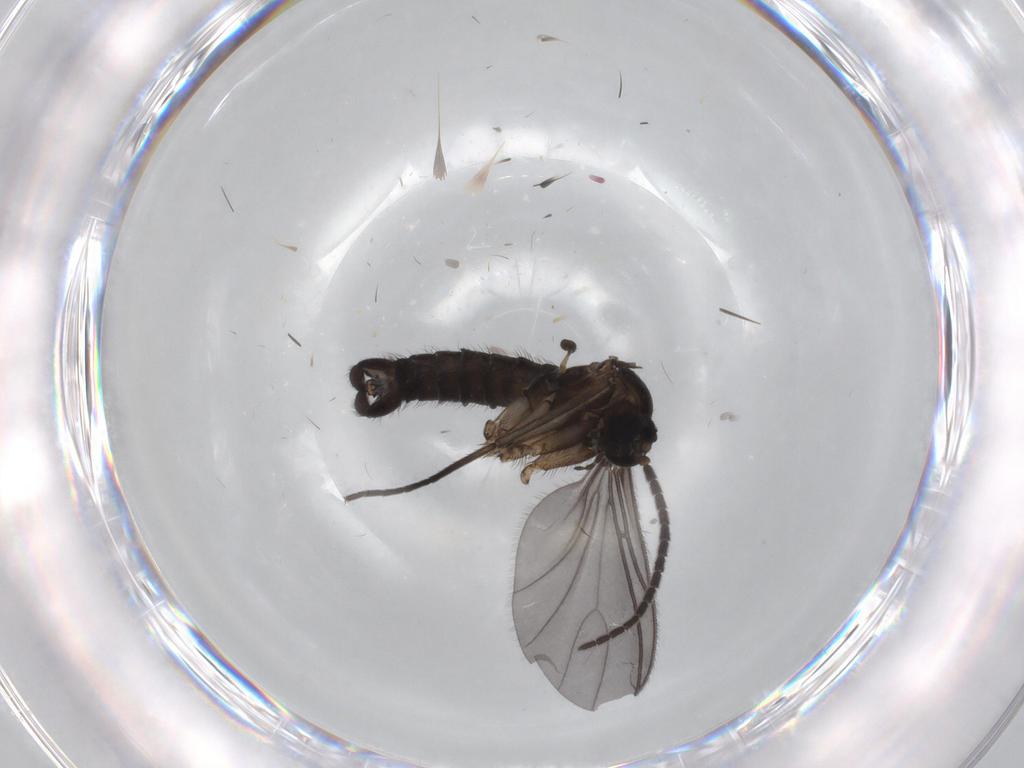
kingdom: Animalia
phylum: Arthropoda
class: Insecta
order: Diptera
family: Sciaridae
